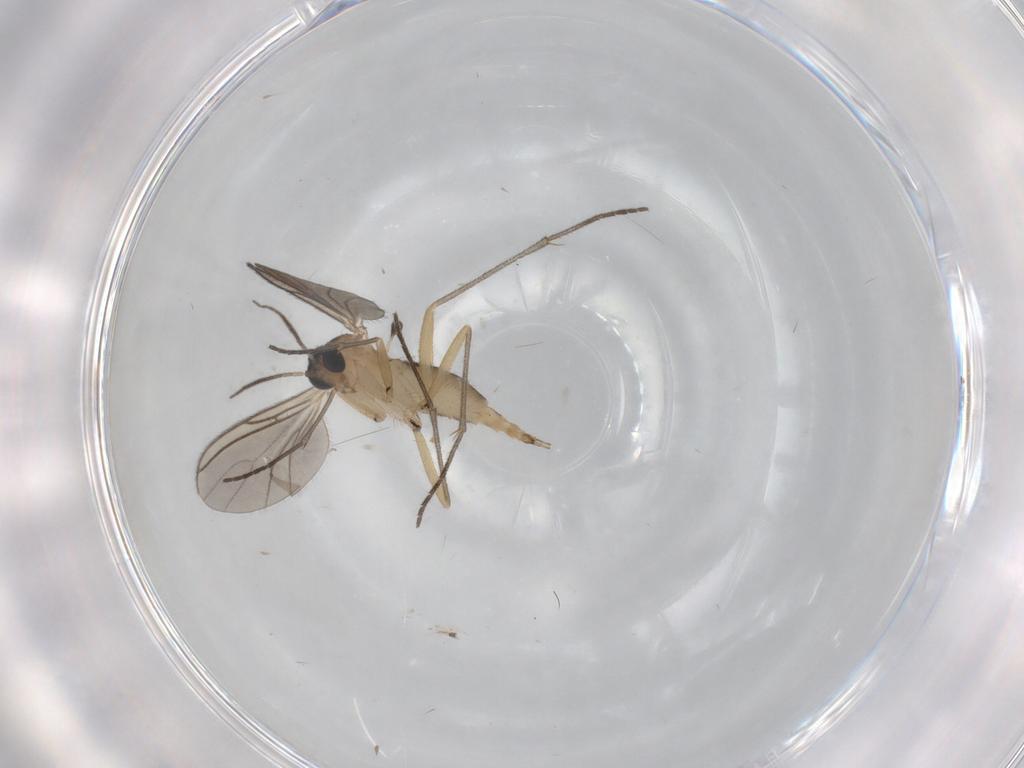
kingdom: Animalia
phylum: Arthropoda
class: Insecta
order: Diptera
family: Sciaridae
